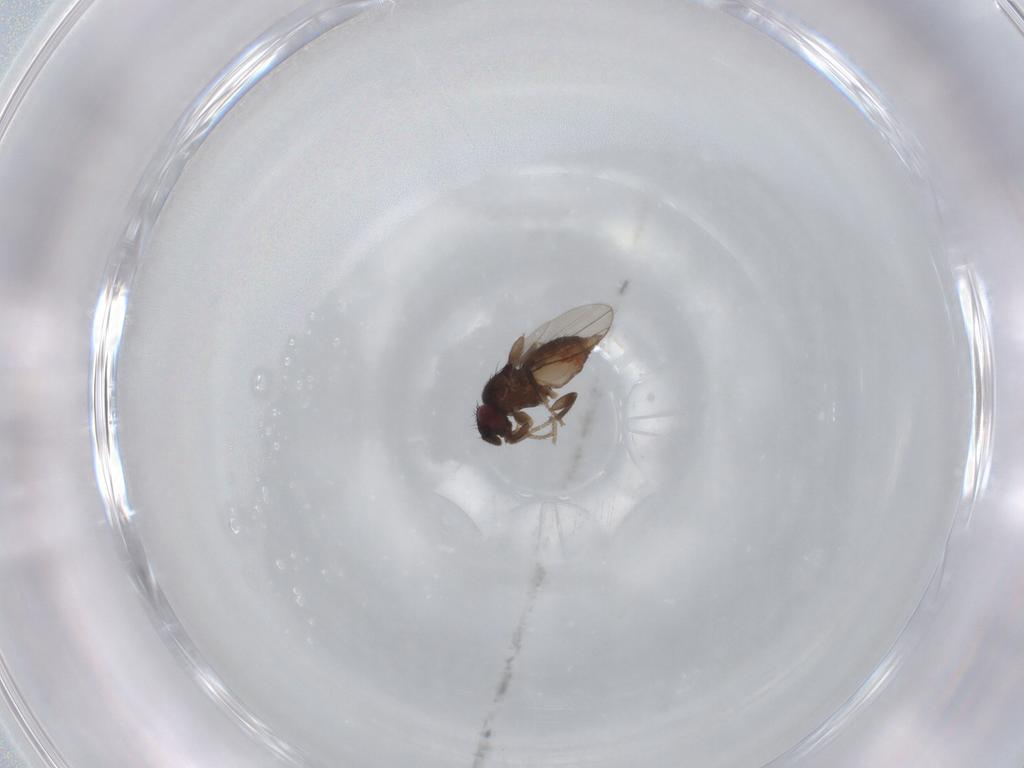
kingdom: Animalia
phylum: Arthropoda
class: Insecta
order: Diptera
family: Milichiidae
